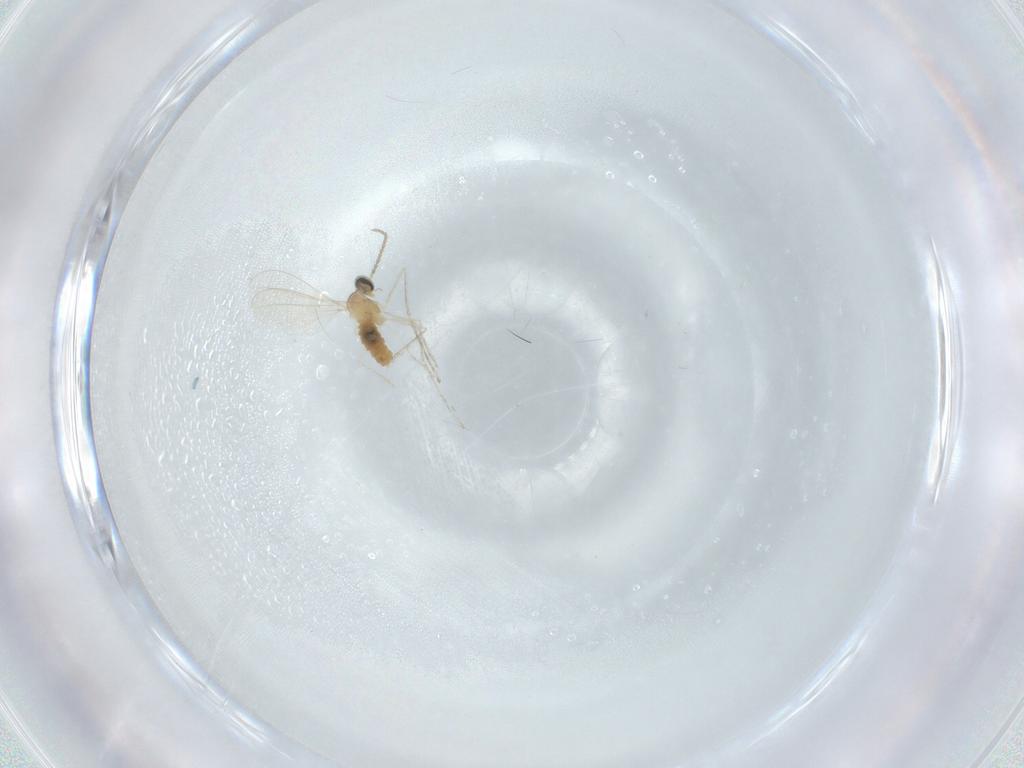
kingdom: Animalia
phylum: Arthropoda
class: Insecta
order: Diptera
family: Cecidomyiidae
